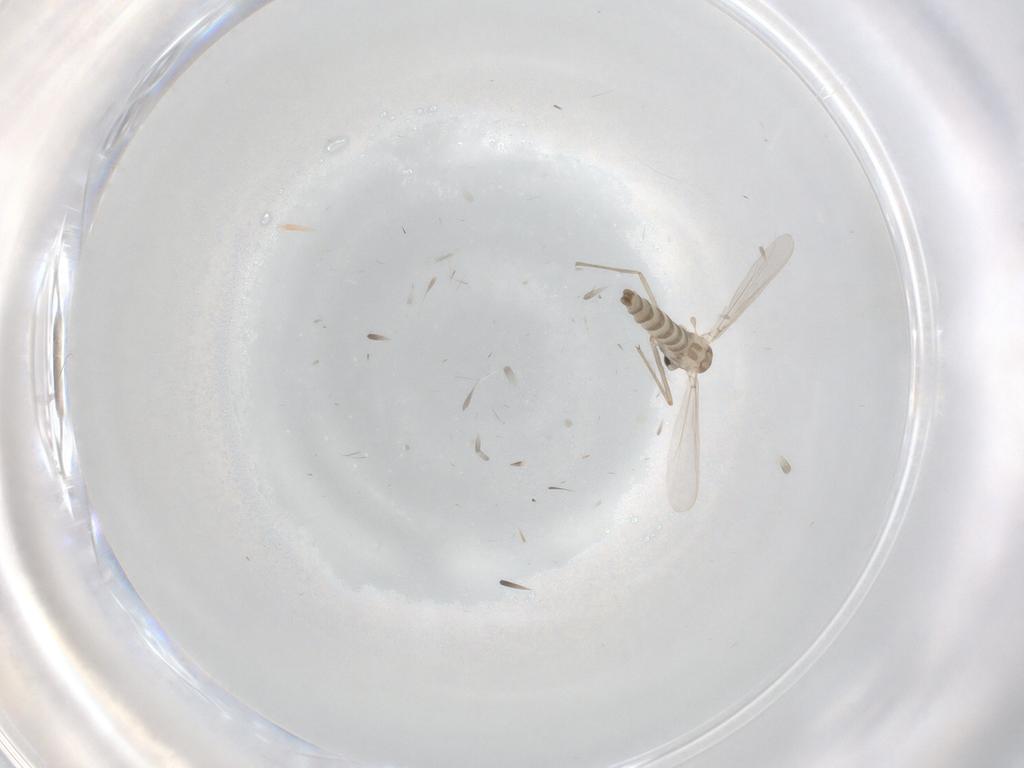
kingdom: Animalia
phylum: Arthropoda
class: Insecta
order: Diptera
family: Chironomidae
